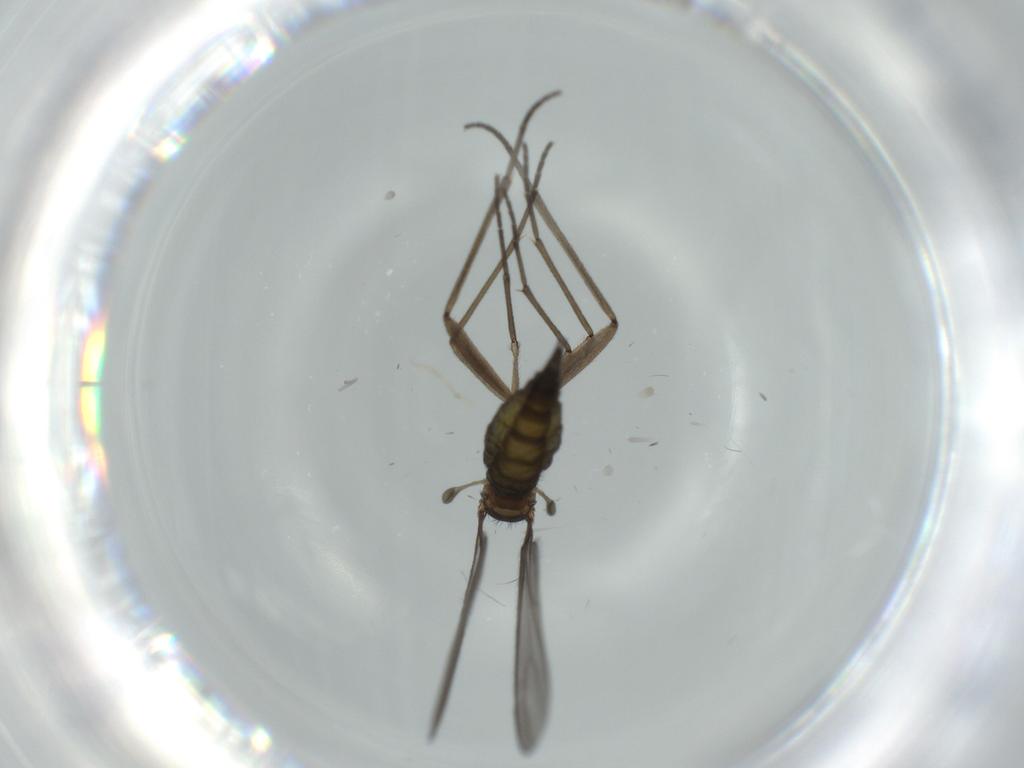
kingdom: Animalia
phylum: Arthropoda
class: Insecta
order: Diptera
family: Sciaridae
